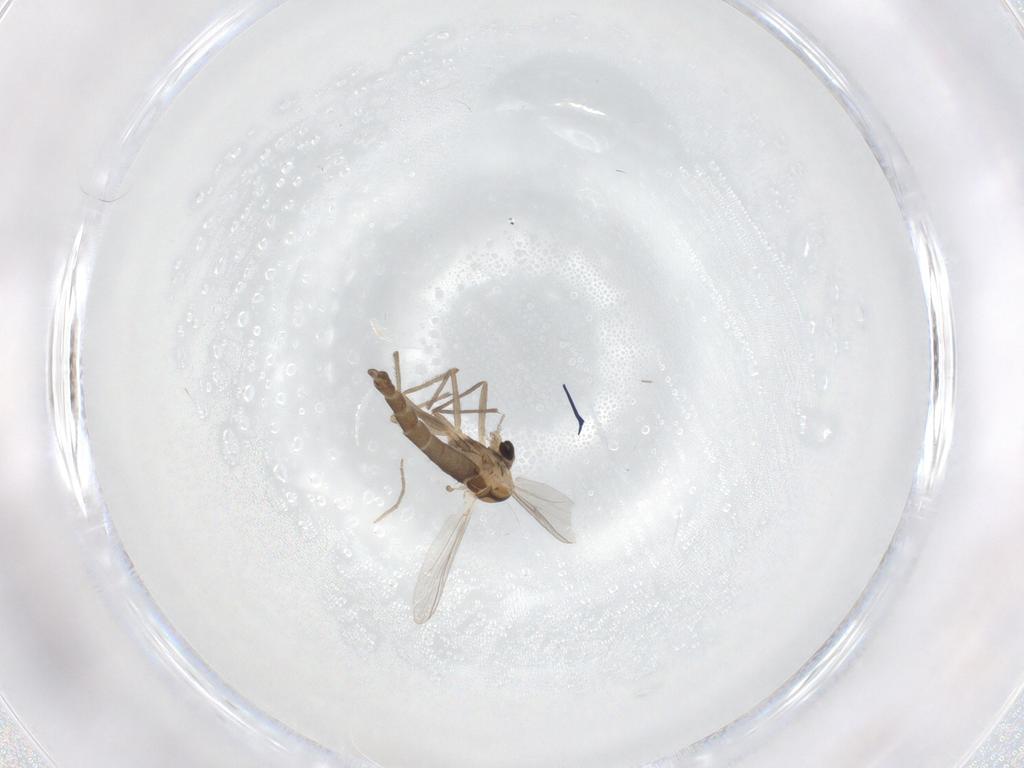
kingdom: Animalia
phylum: Arthropoda
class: Insecta
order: Diptera
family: Chironomidae
